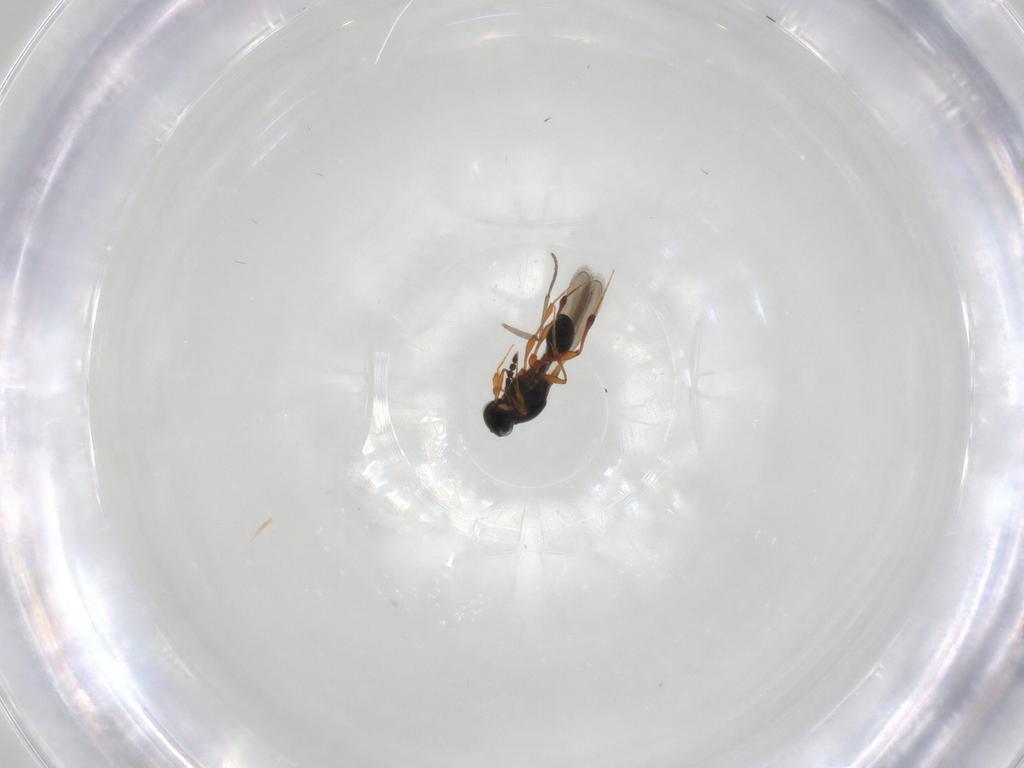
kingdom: Animalia
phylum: Arthropoda
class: Insecta
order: Hymenoptera
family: Platygastridae
